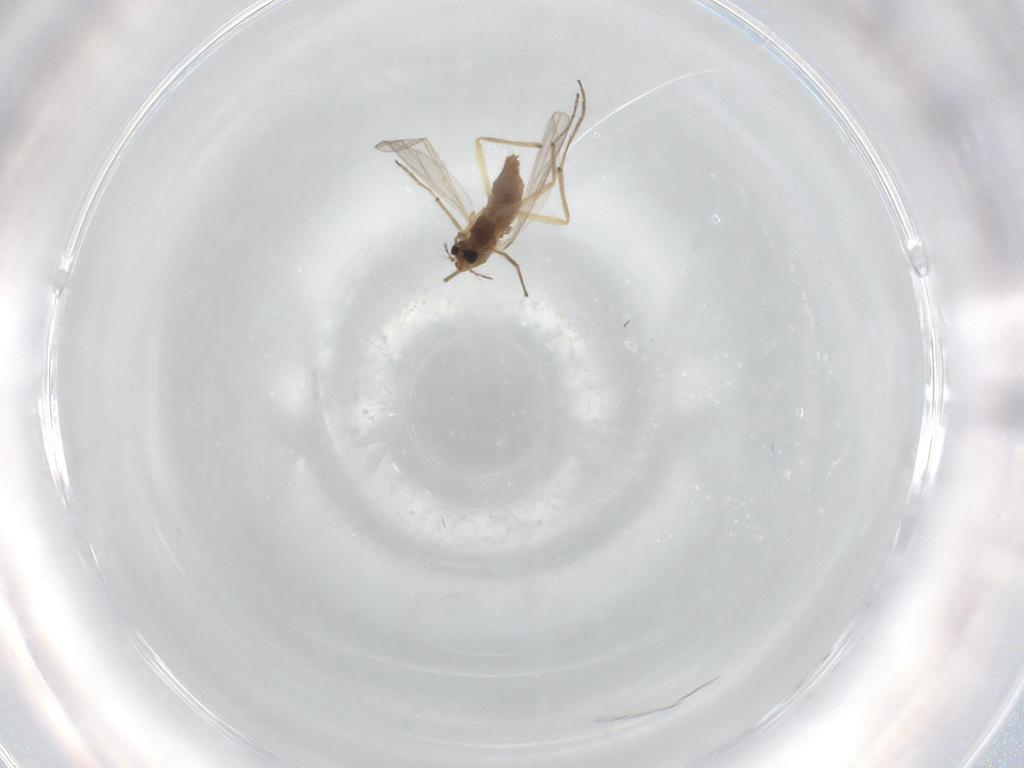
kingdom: Animalia
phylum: Arthropoda
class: Insecta
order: Diptera
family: Chironomidae
